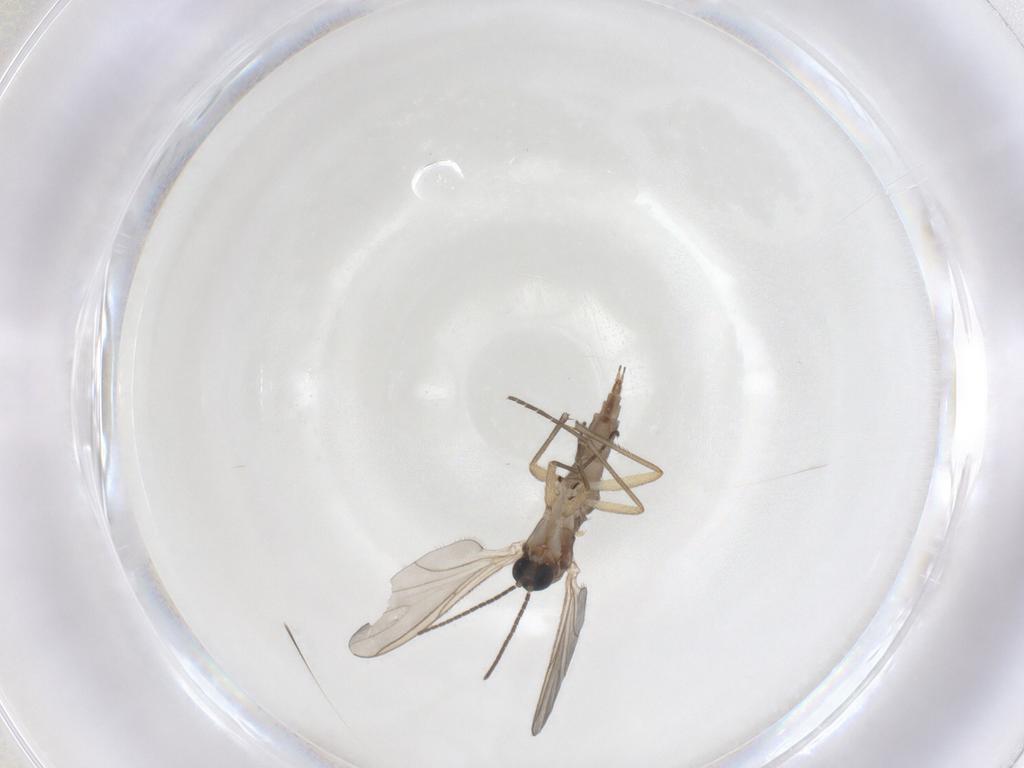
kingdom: Animalia
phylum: Arthropoda
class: Insecta
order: Diptera
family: Sciaridae
